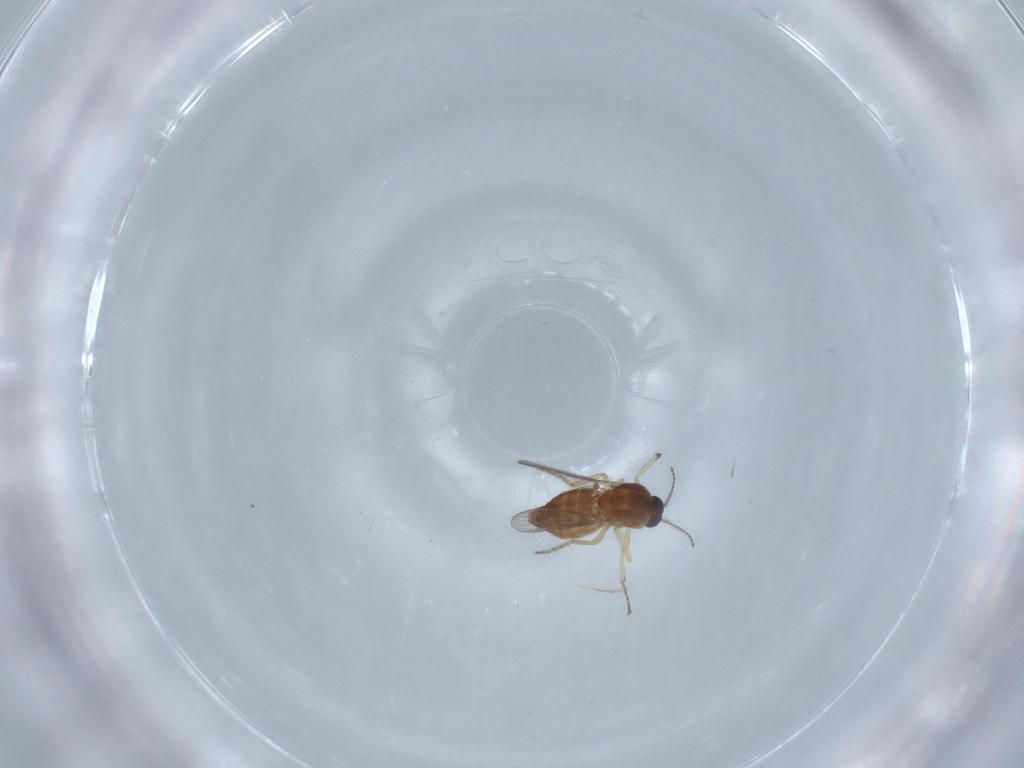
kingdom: Animalia
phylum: Arthropoda
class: Insecta
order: Diptera
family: Ceratopogonidae
